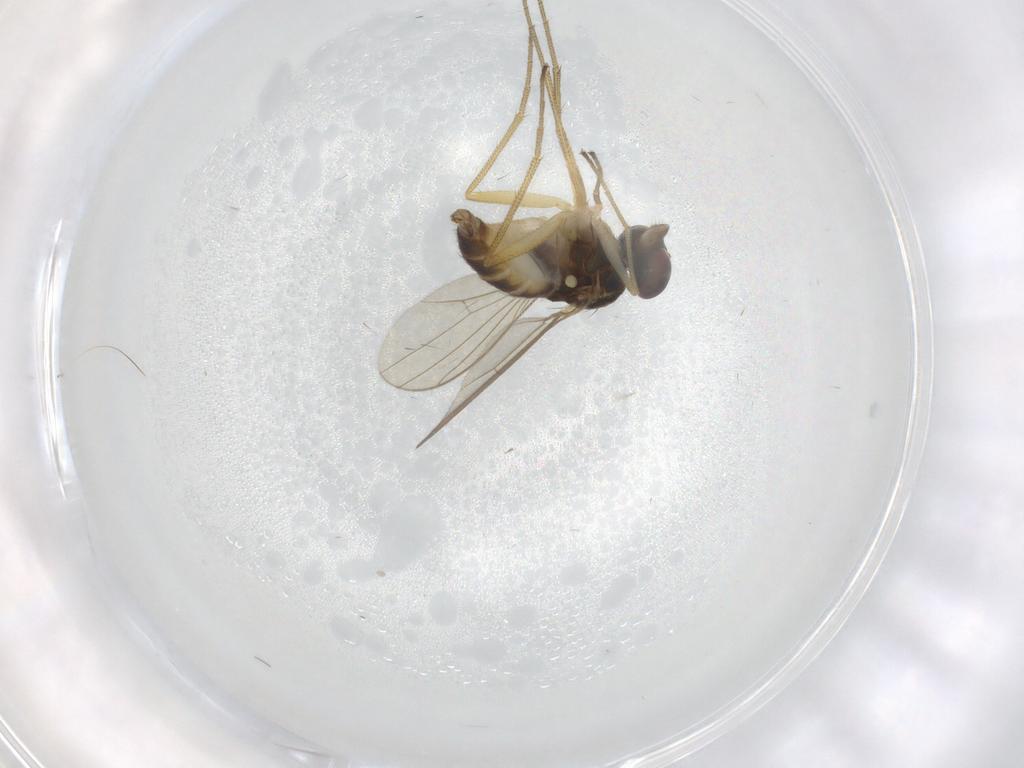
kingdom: Animalia
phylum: Arthropoda
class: Insecta
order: Diptera
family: Dolichopodidae
